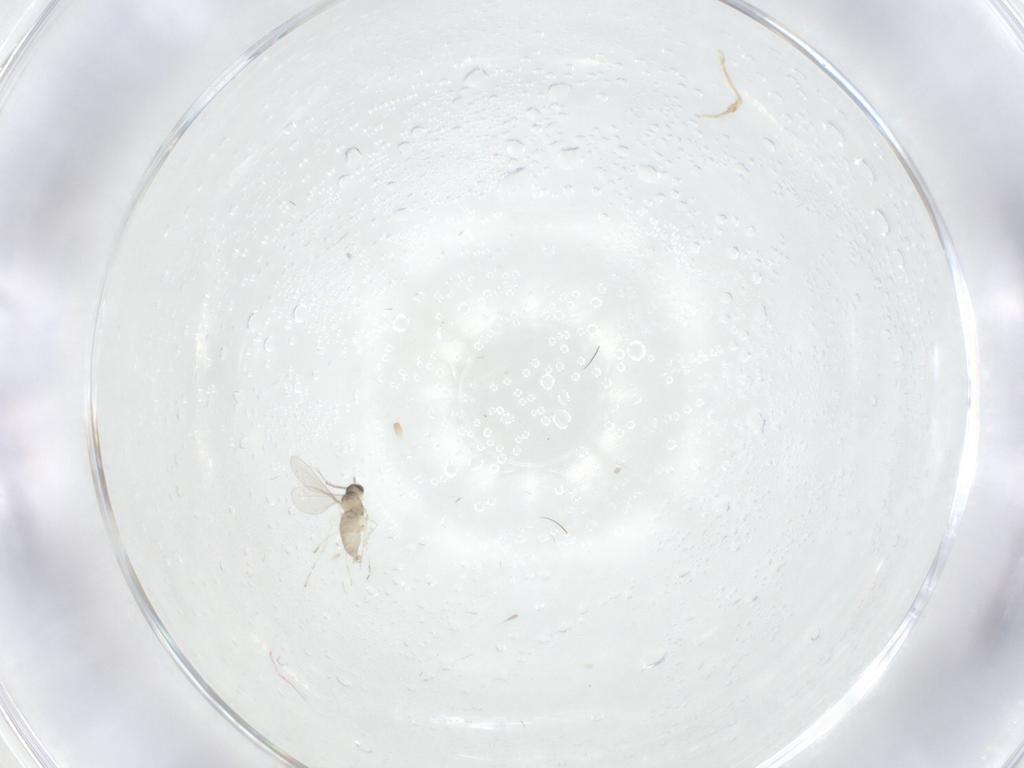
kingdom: Animalia
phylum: Arthropoda
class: Insecta
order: Diptera
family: Limoniidae
